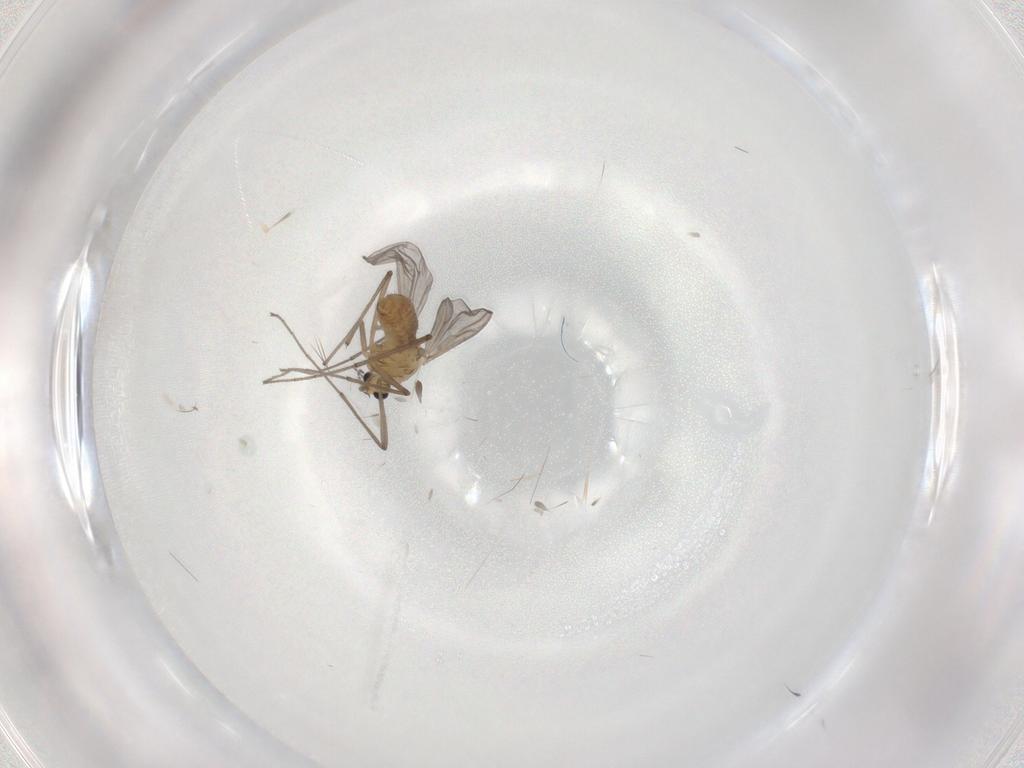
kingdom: Animalia
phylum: Arthropoda
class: Insecta
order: Diptera
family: Chironomidae
